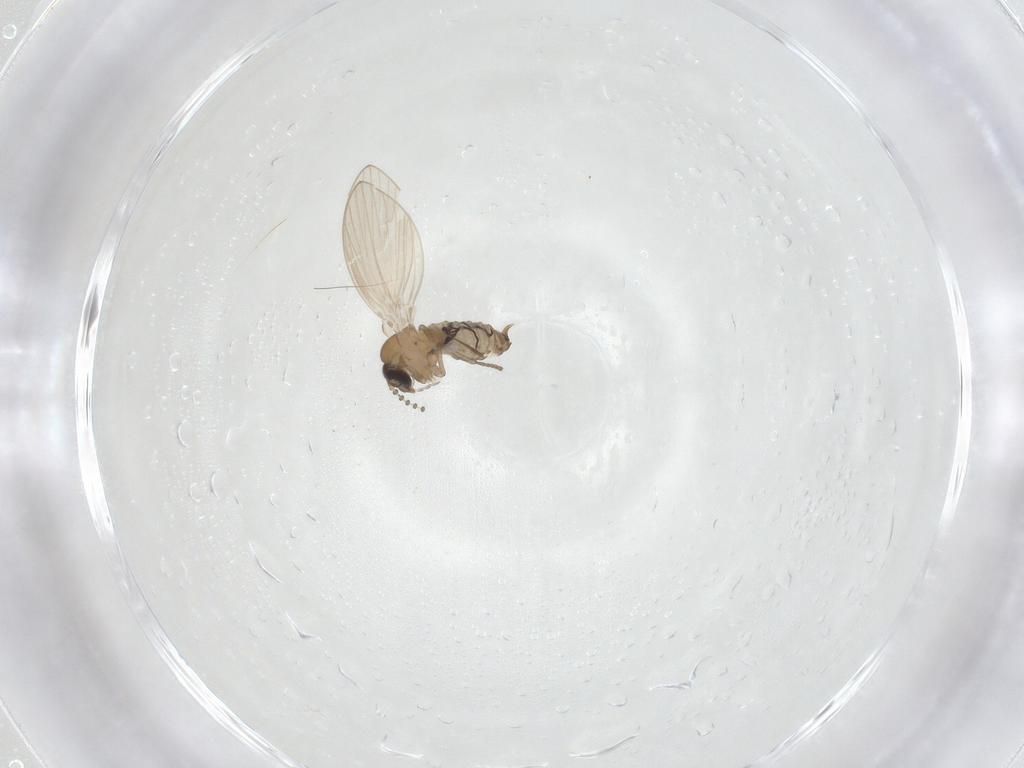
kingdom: Animalia
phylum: Arthropoda
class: Insecta
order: Diptera
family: Psychodidae
